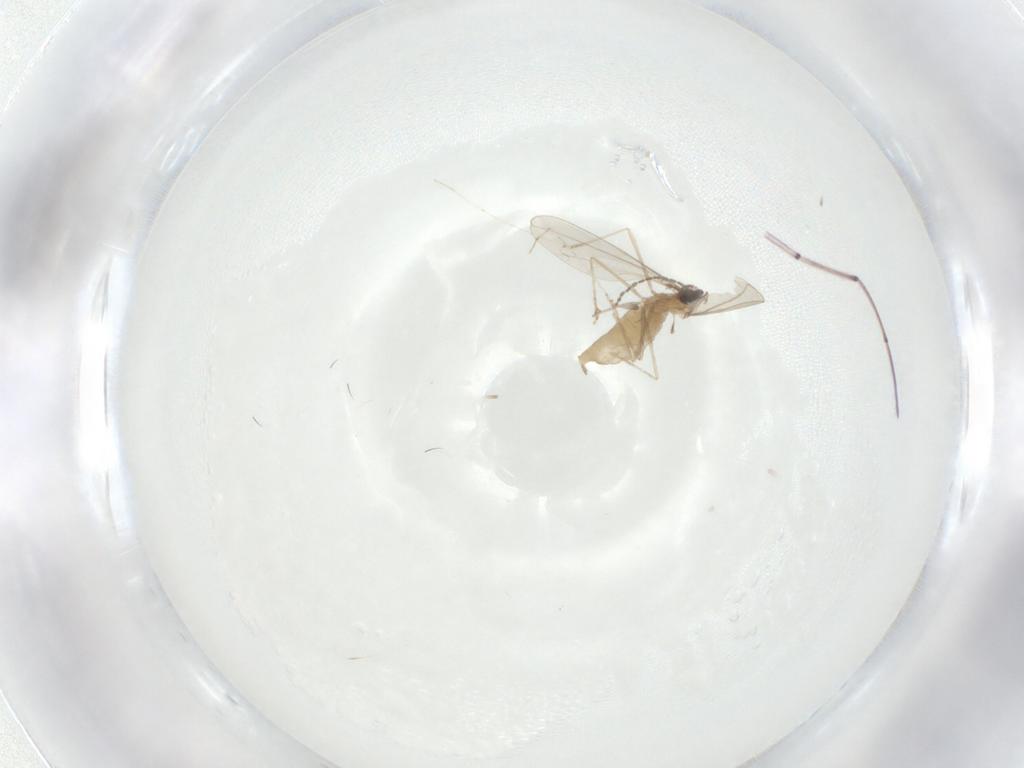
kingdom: Animalia
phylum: Arthropoda
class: Insecta
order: Diptera
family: Cecidomyiidae
